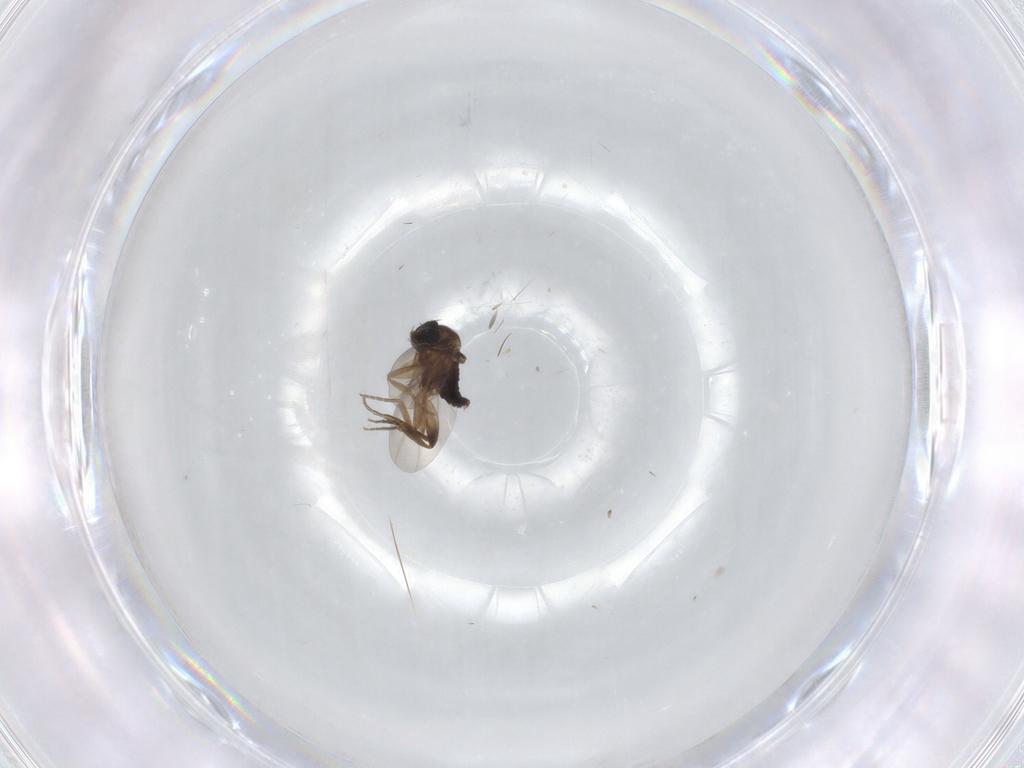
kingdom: Animalia
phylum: Arthropoda
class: Insecta
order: Diptera
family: Phoridae
